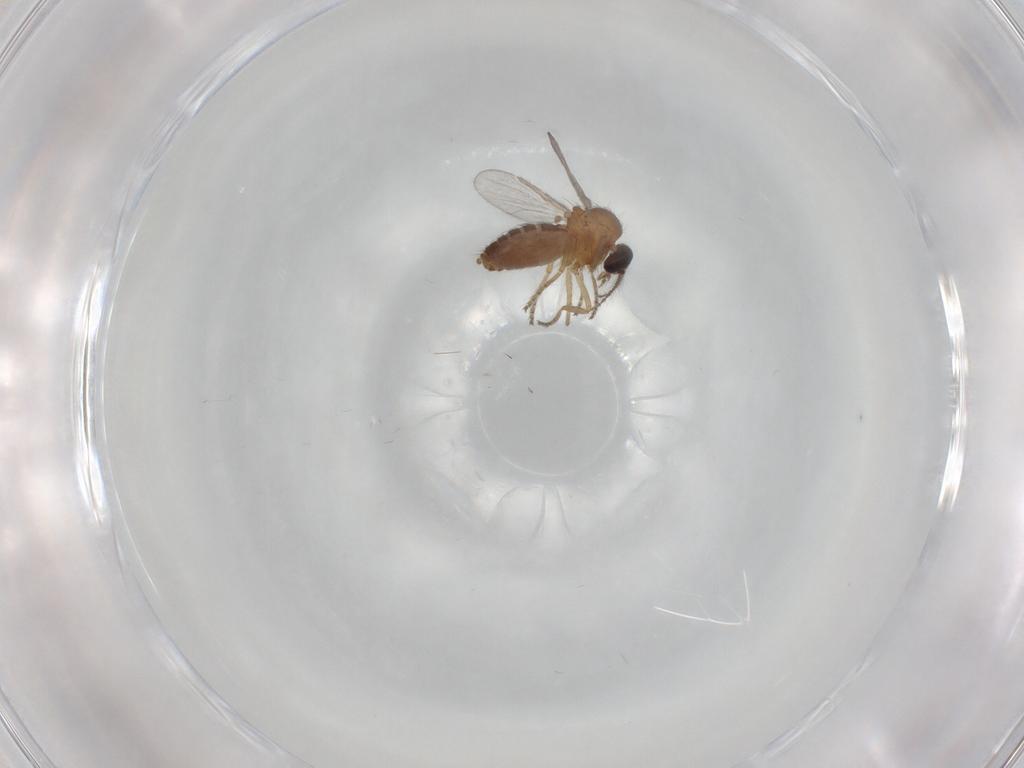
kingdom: Animalia
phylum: Arthropoda
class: Insecta
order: Diptera
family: Ceratopogonidae
